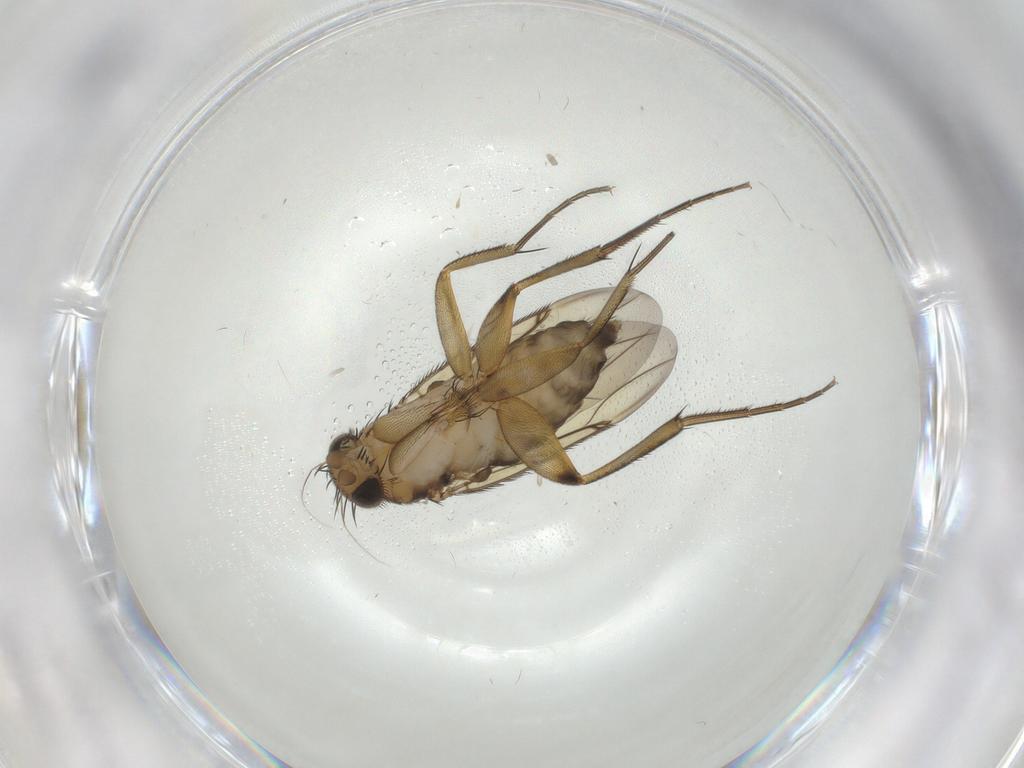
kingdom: Animalia
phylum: Arthropoda
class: Insecta
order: Diptera
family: Phoridae
